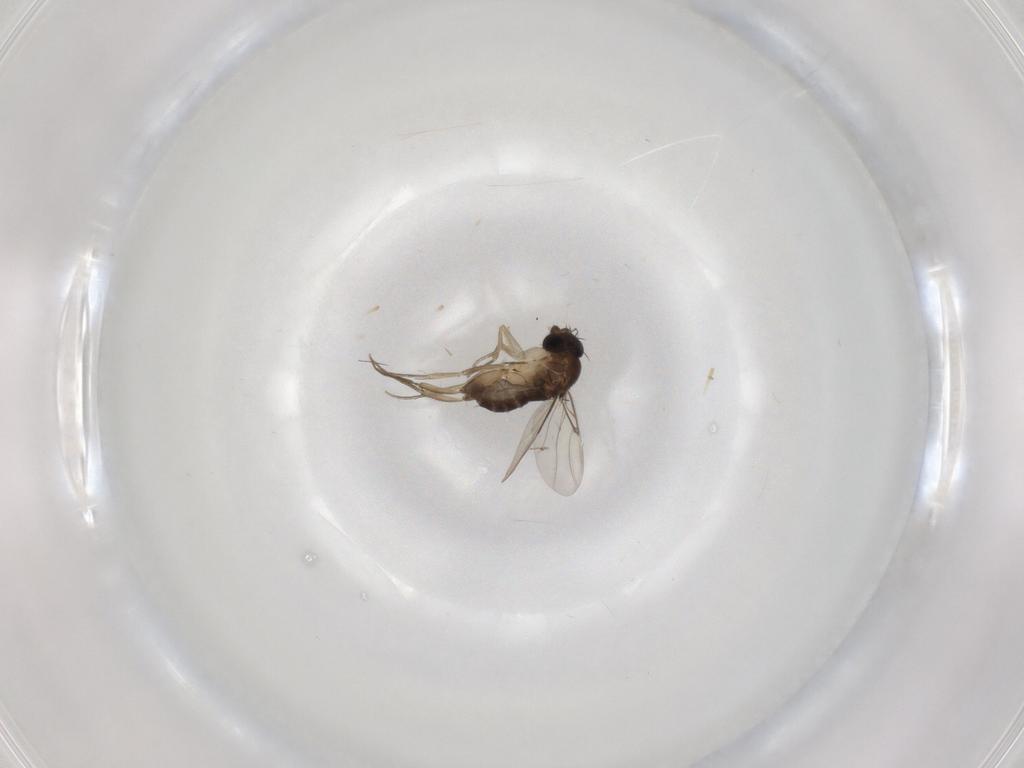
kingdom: Animalia
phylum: Arthropoda
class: Insecta
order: Diptera
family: Phoridae
